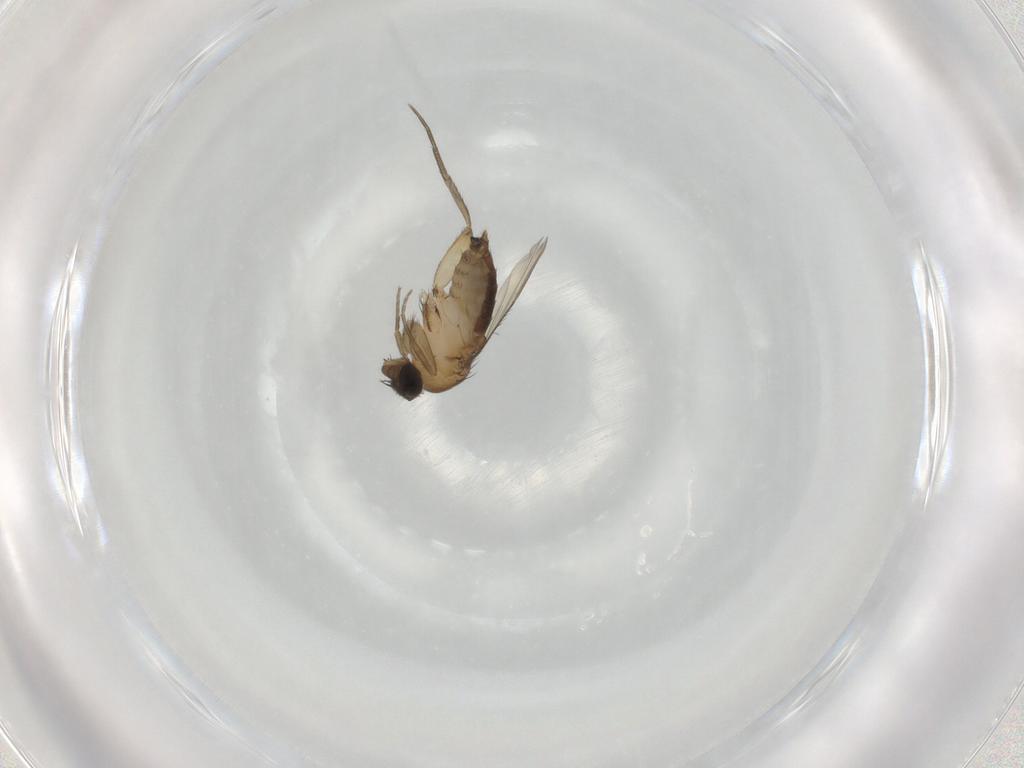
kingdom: Animalia
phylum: Arthropoda
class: Insecta
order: Diptera
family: Phoridae
